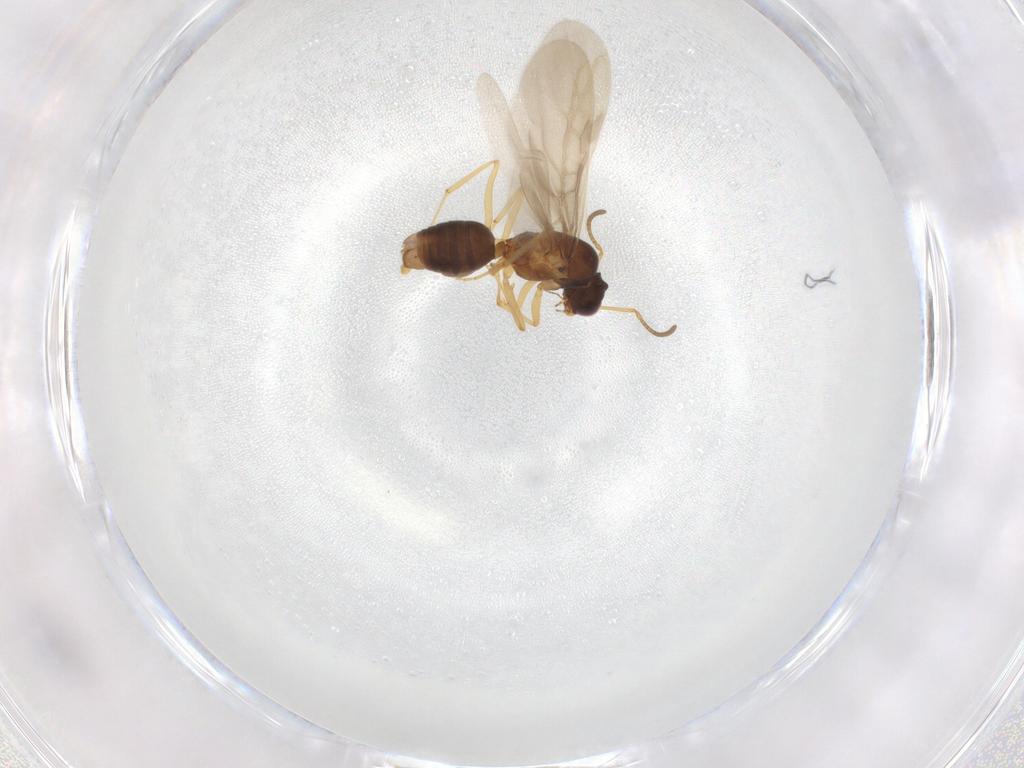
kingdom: Animalia
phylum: Arthropoda
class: Insecta
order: Hymenoptera
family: Formicidae
